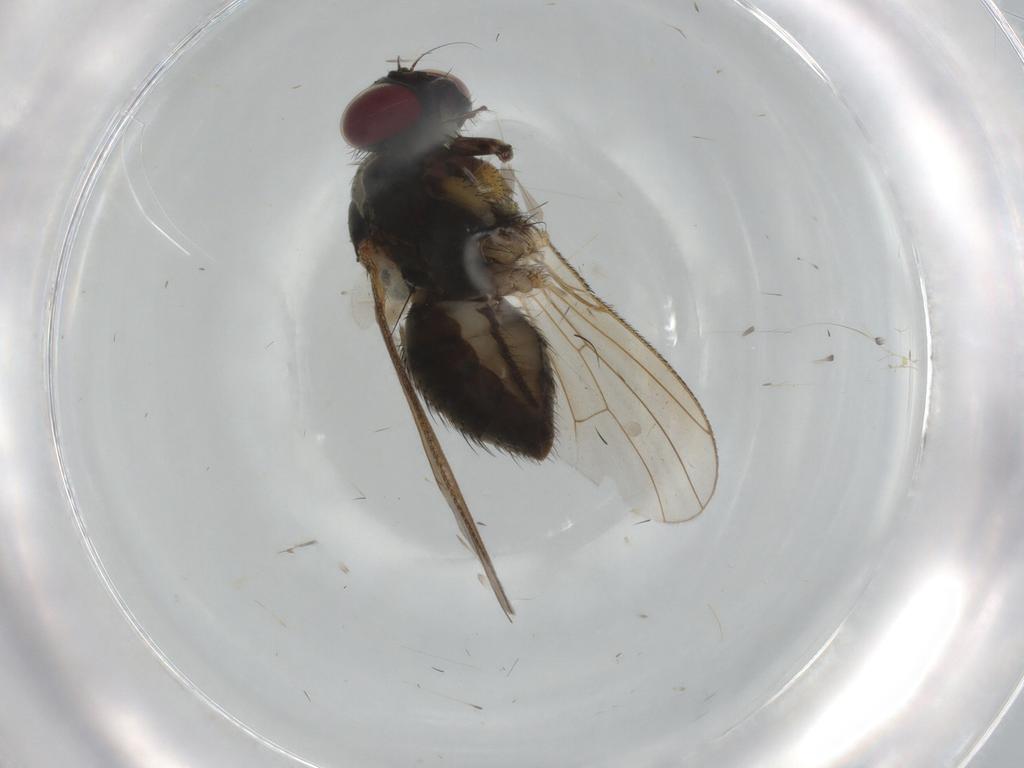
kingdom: Animalia
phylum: Arthropoda
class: Insecta
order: Diptera
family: Muscidae
